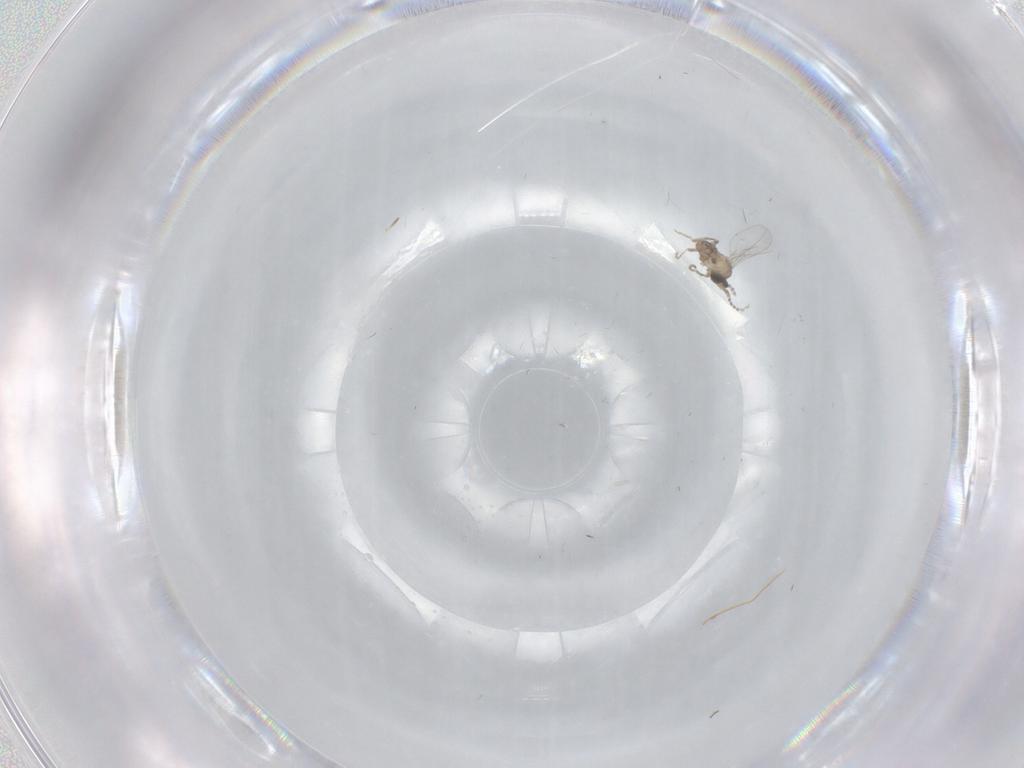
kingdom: Animalia
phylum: Arthropoda
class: Insecta
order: Diptera
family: Cecidomyiidae
